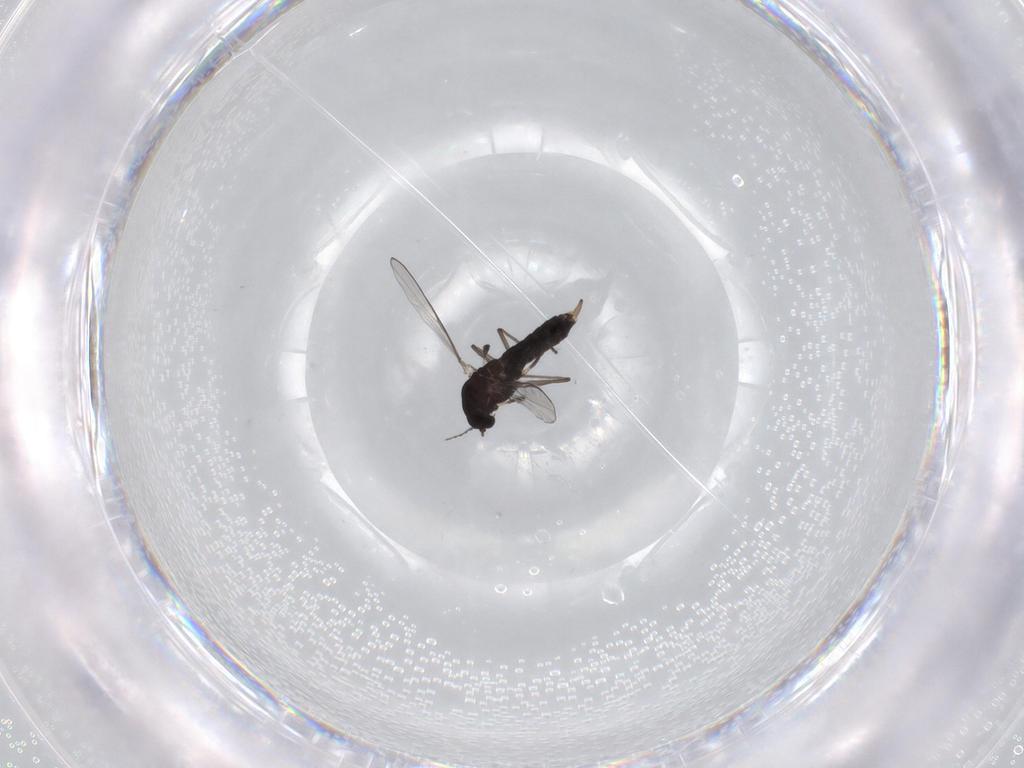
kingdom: Animalia
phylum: Arthropoda
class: Insecta
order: Diptera
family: Chironomidae
